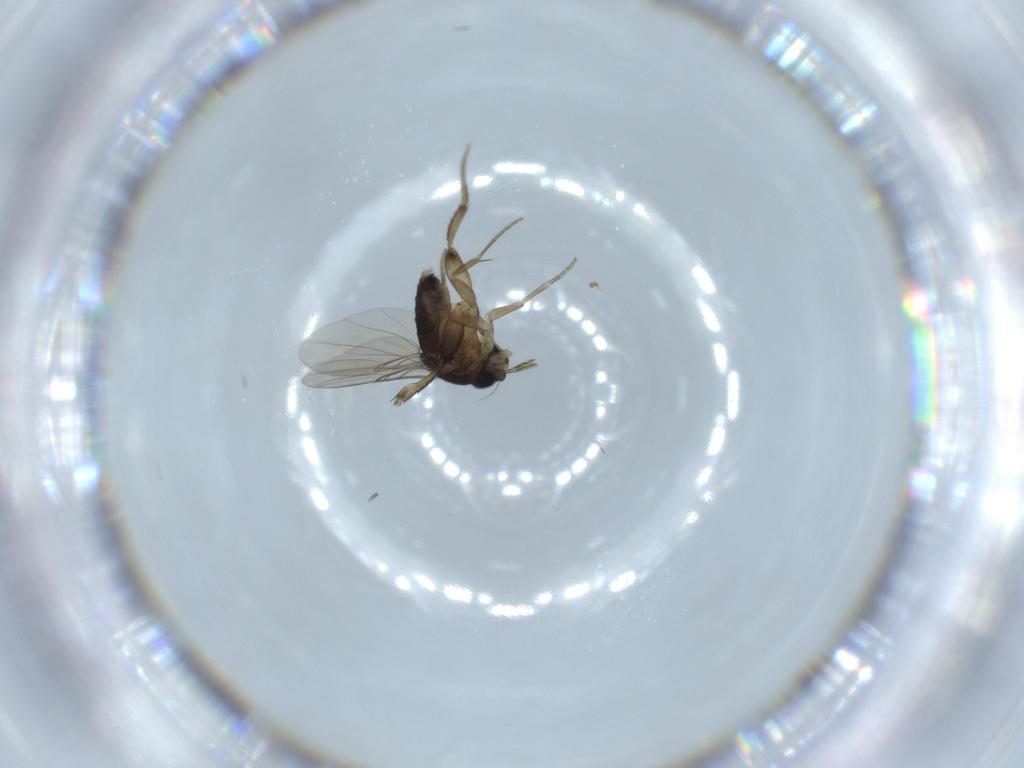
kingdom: Animalia
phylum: Arthropoda
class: Insecta
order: Diptera
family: Phoridae
